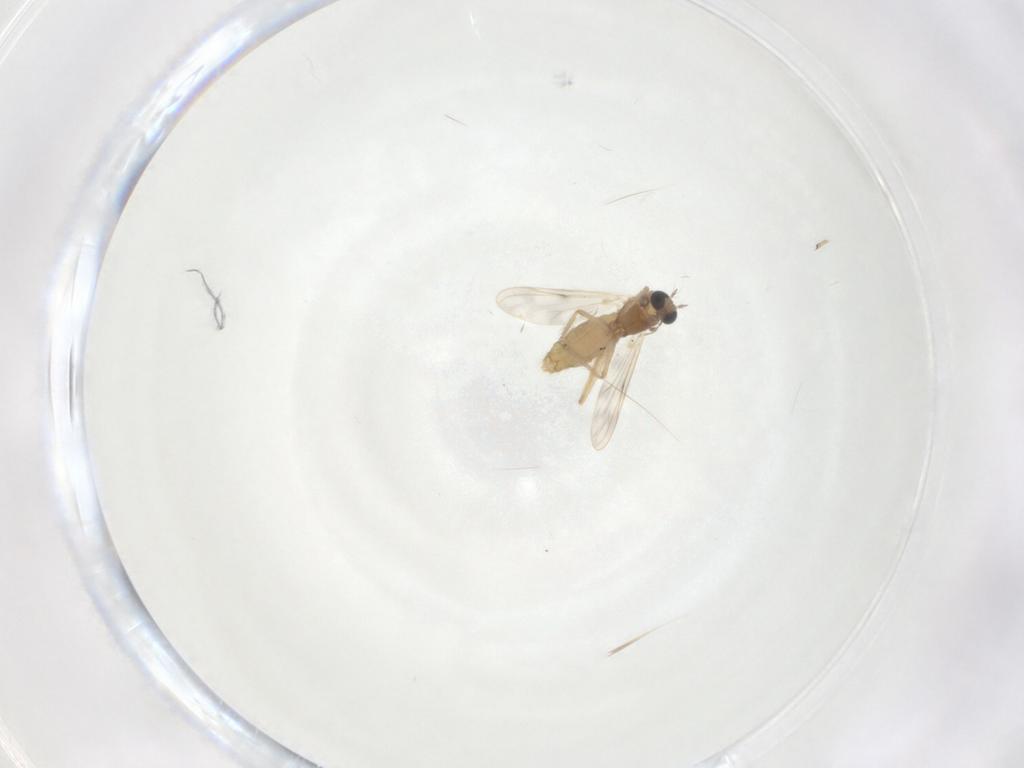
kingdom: Animalia
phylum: Arthropoda
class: Insecta
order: Diptera
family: Chironomidae
